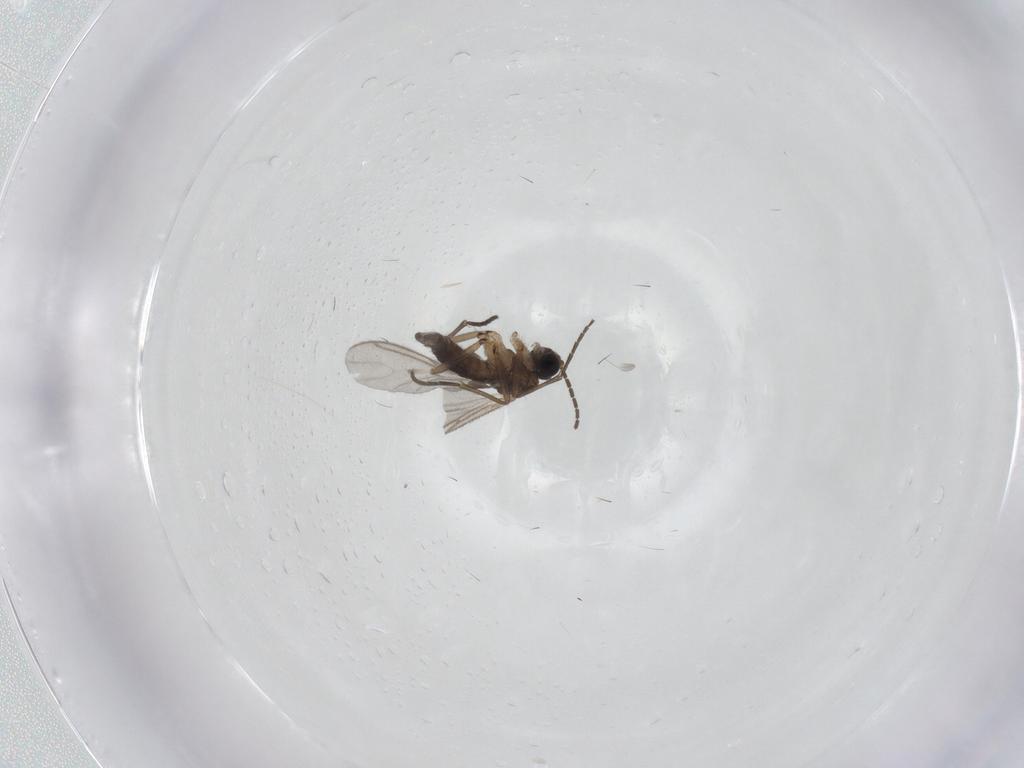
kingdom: Animalia
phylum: Arthropoda
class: Insecta
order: Diptera
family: Sciaridae
